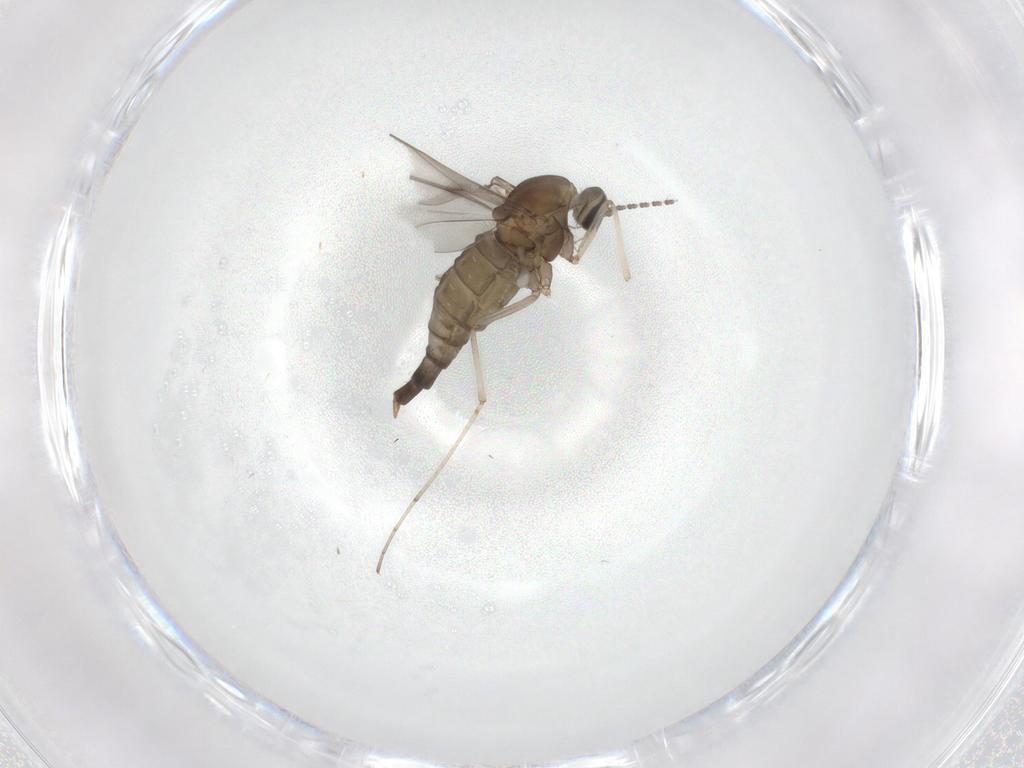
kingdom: Animalia
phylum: Arthropoda
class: Insecta
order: Diptera
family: Cecidomyiidae
